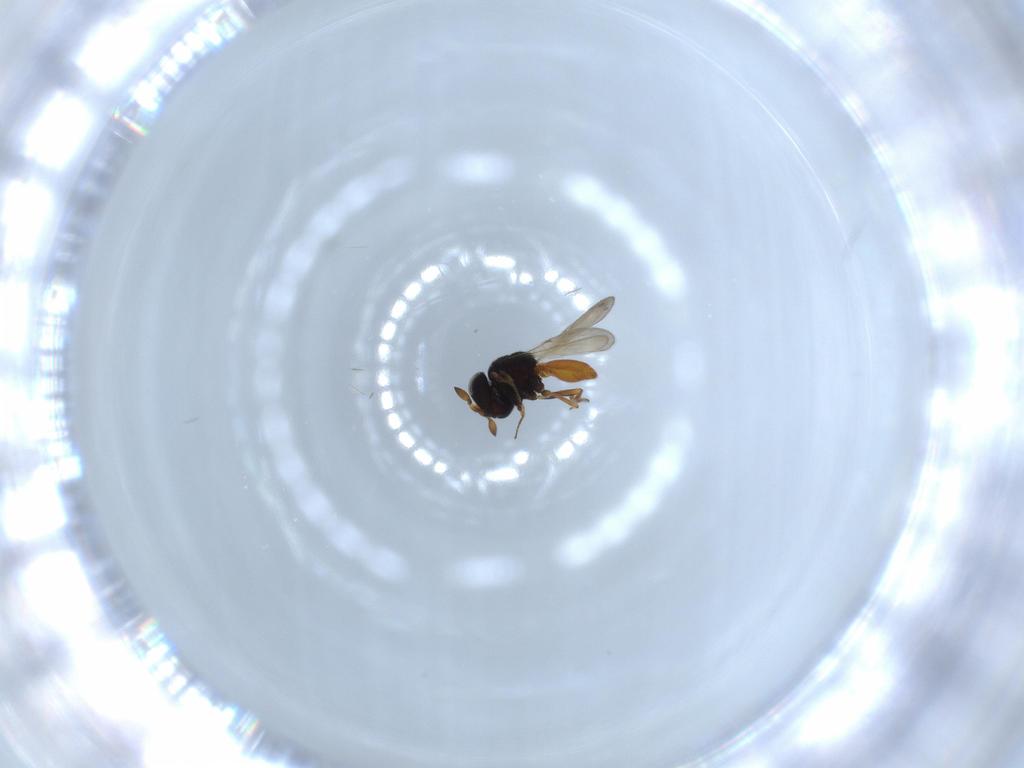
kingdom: Animalia
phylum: Arthropoda
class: Insecta
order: Hymenoptera
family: Scelionidae
